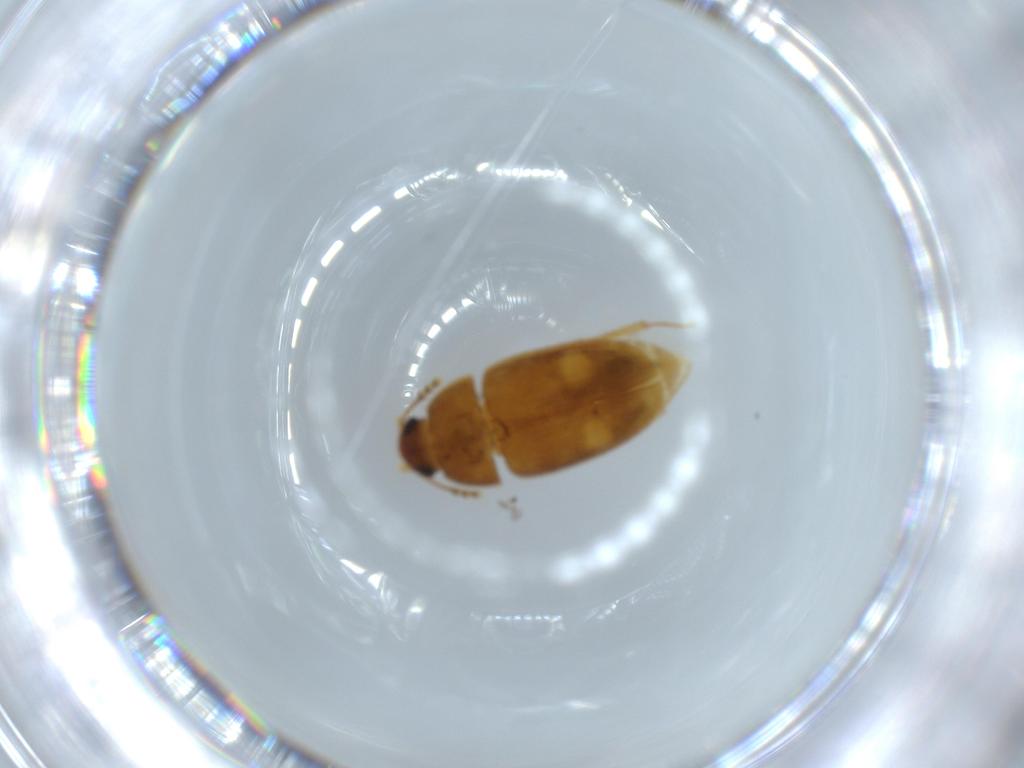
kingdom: Animalia
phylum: Arthropoda
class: Insecta
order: Coleoptera
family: Mycetophagidae
